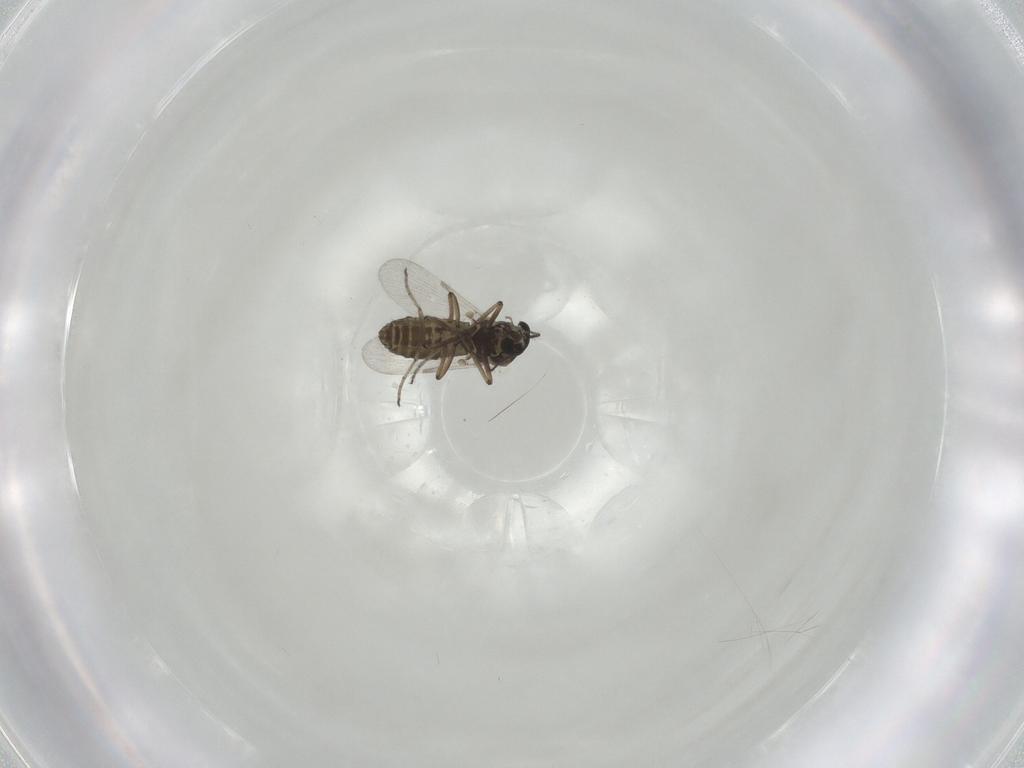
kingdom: Animalia
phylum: Arthropoda
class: Insecta
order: Diptera
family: Ceratopogonidae
